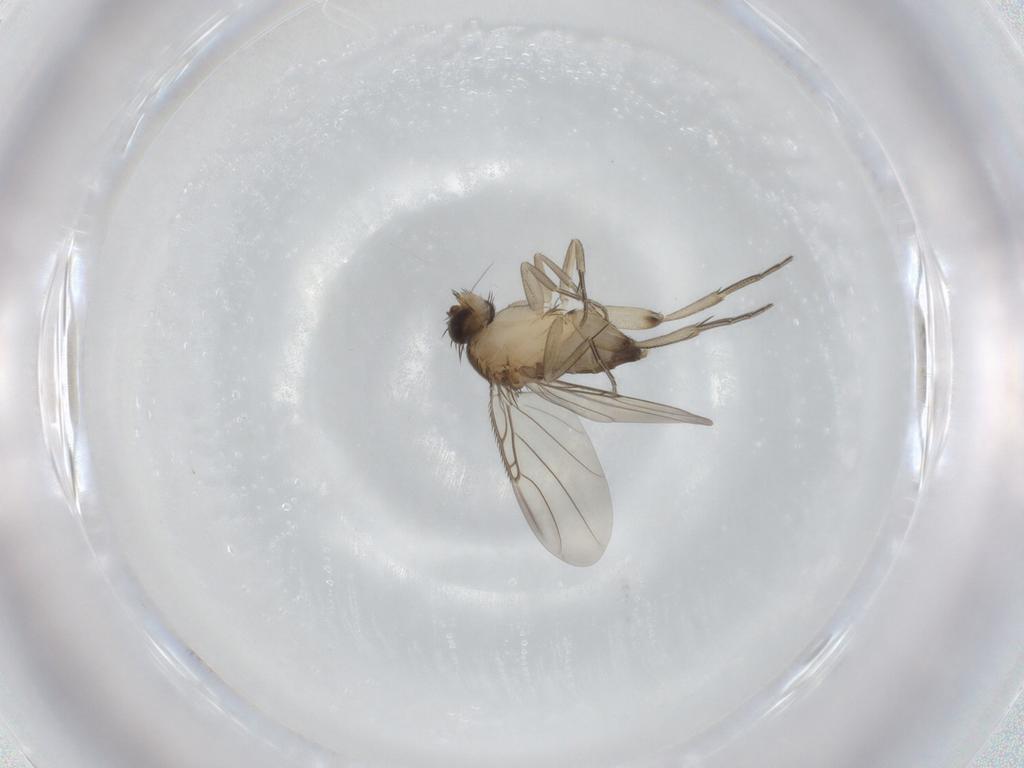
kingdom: Animalia
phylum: Arthropoda
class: Insecta
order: Diptera
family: Phoridae
